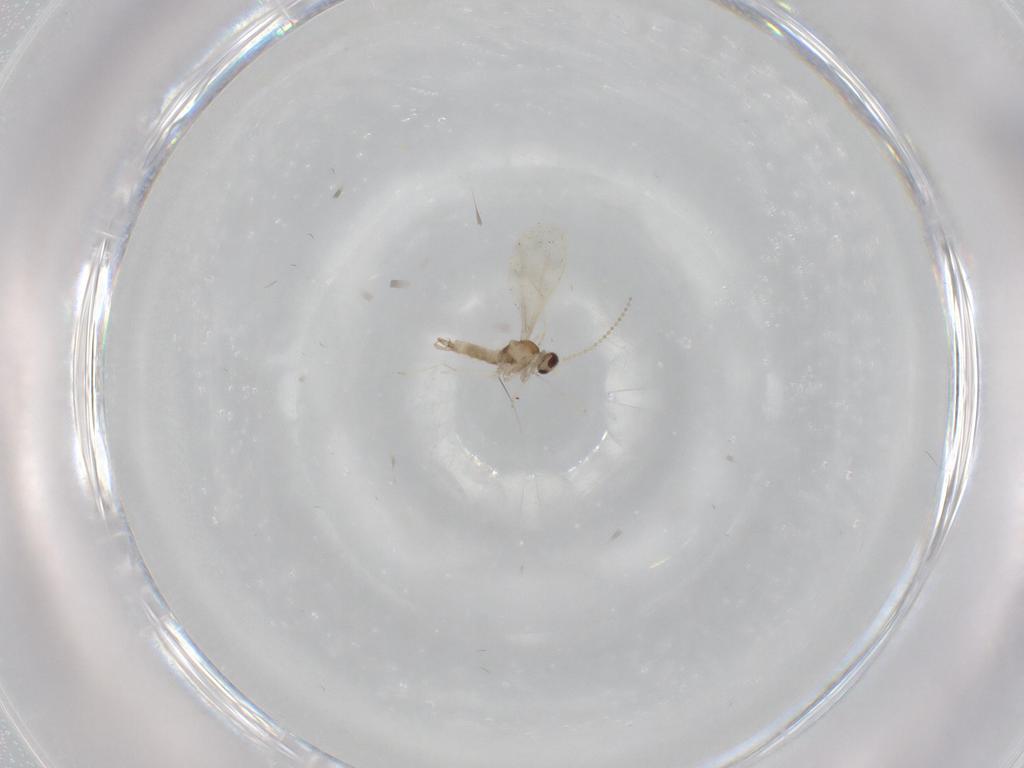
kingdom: Animalia
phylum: Arthropoda
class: Insecta
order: Diptera
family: Cecidomyiidae
